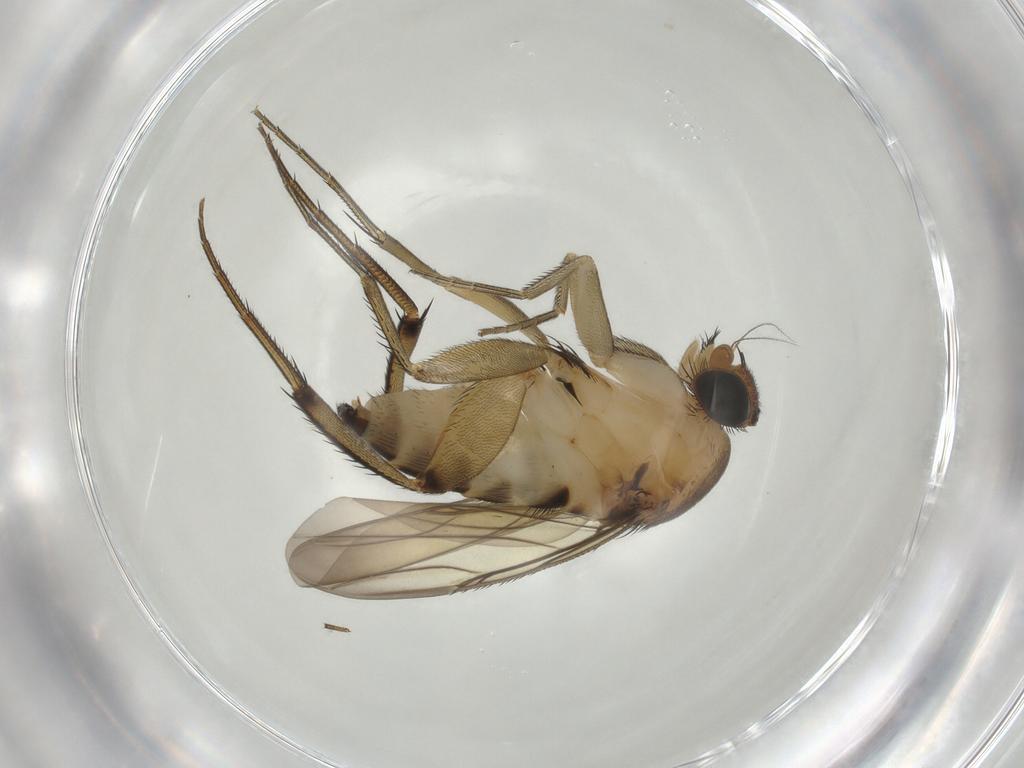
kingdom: Animalia
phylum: Arthropoda
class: Insecta
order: Diptera
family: Phoridae
